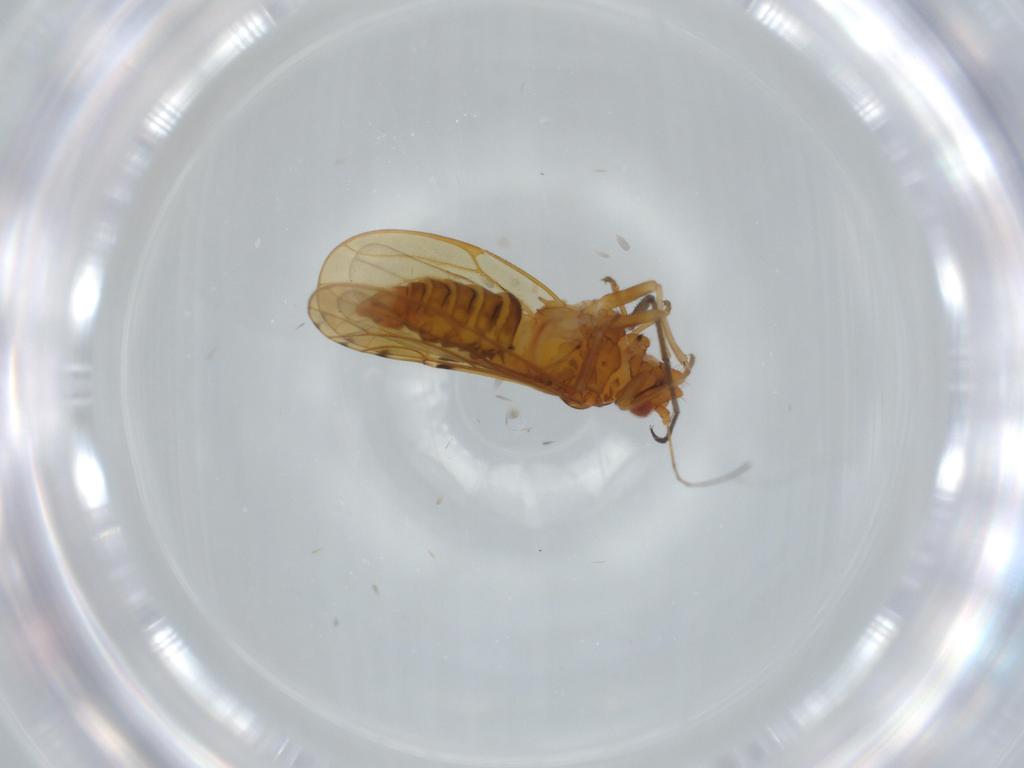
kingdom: Animalia
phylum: Arthropoda
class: Insecta
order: Hemiptera
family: Psylloidea_incertae_sedis
